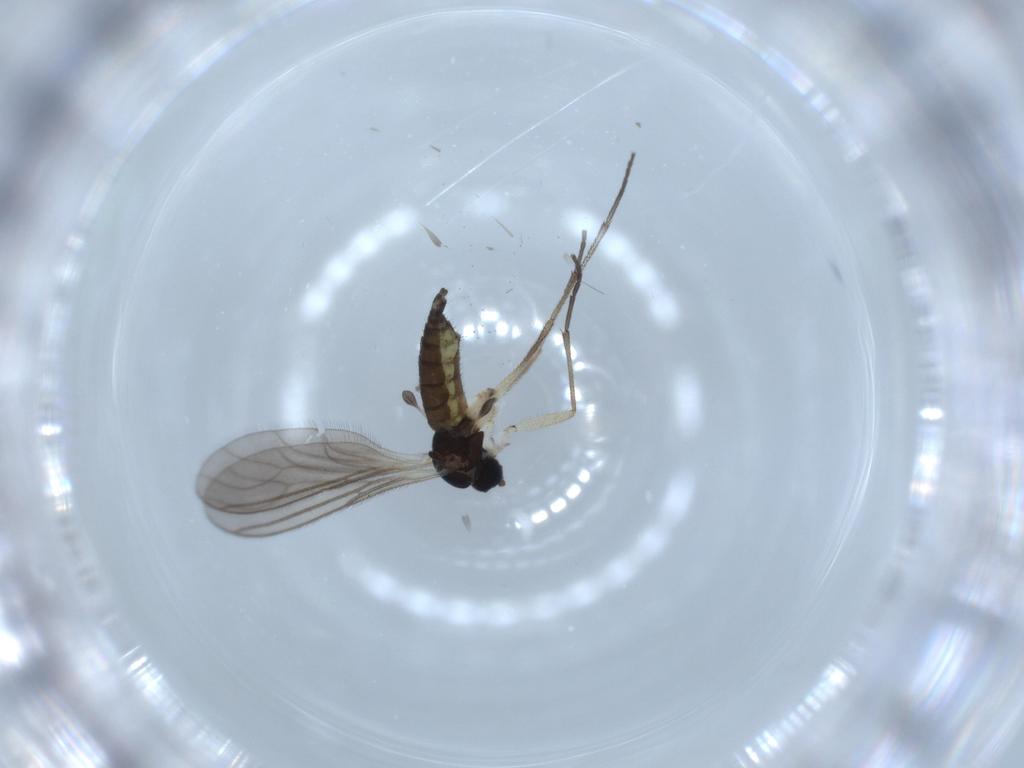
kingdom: Animalia
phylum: Arthropoda
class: Insecta
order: Diptera
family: Sciaridae
